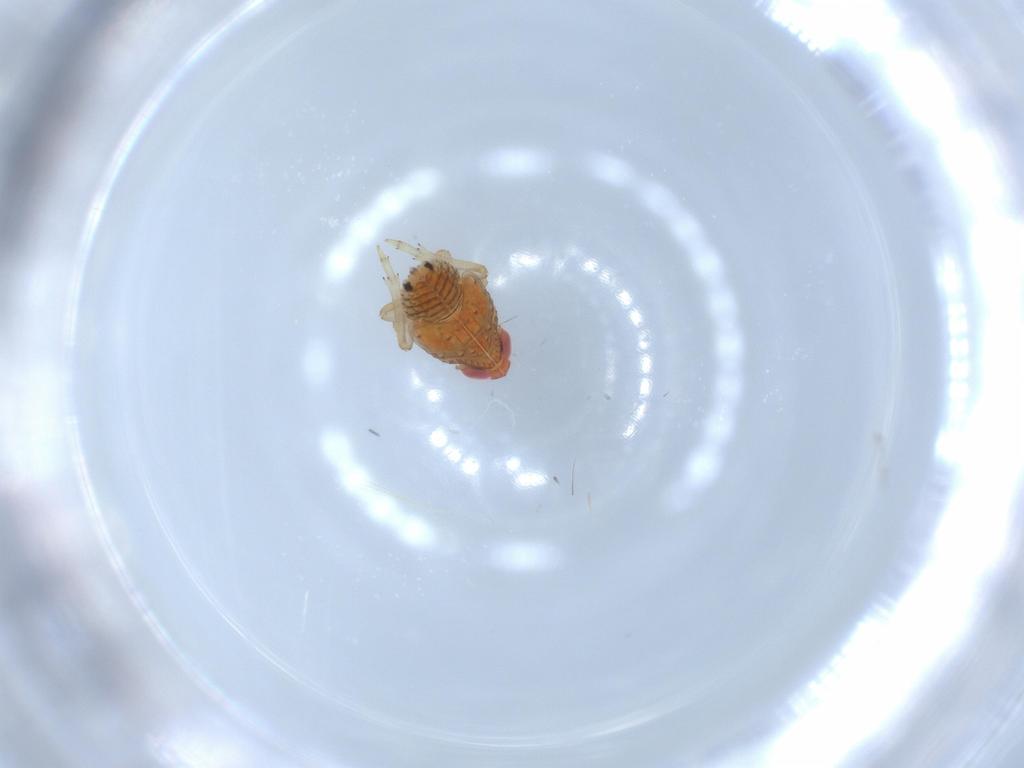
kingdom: Animalia
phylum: Arthropoda
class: Insecta
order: Hemiptera
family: Fulgoroidea_incertae_sedis
